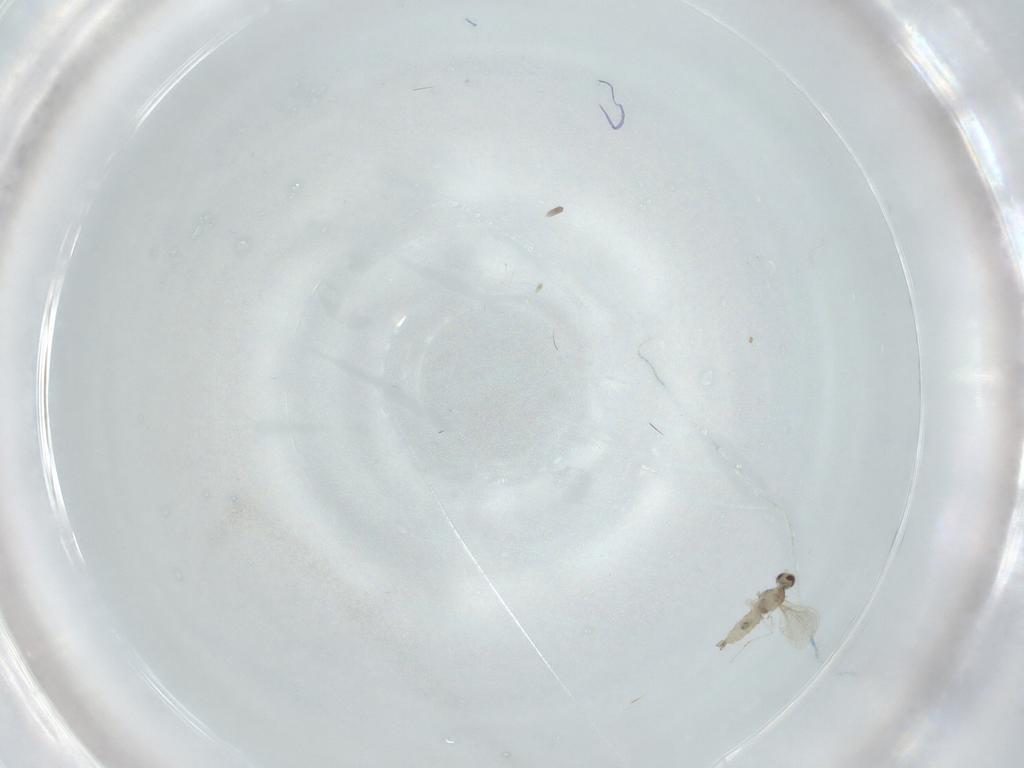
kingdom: Animalia
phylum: Arthropoda
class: Insecta
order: Diptera
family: Cecidomyiidae
